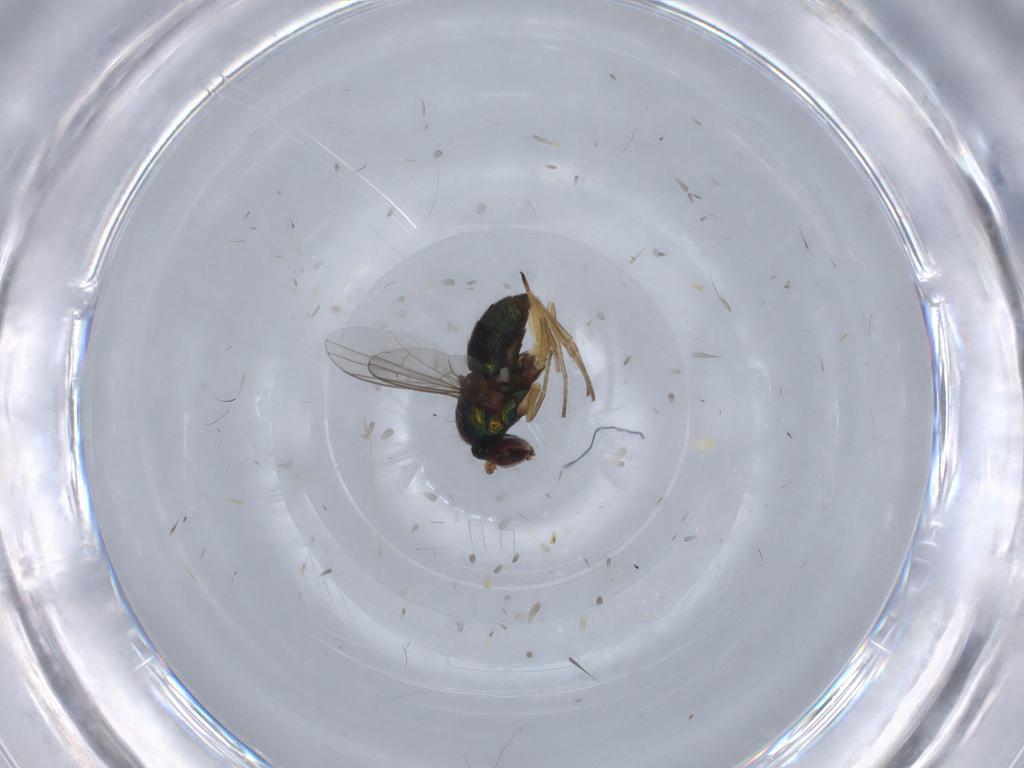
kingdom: Animalia
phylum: Arthropoda
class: Insecta
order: Diptera
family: Dolichopodidae
